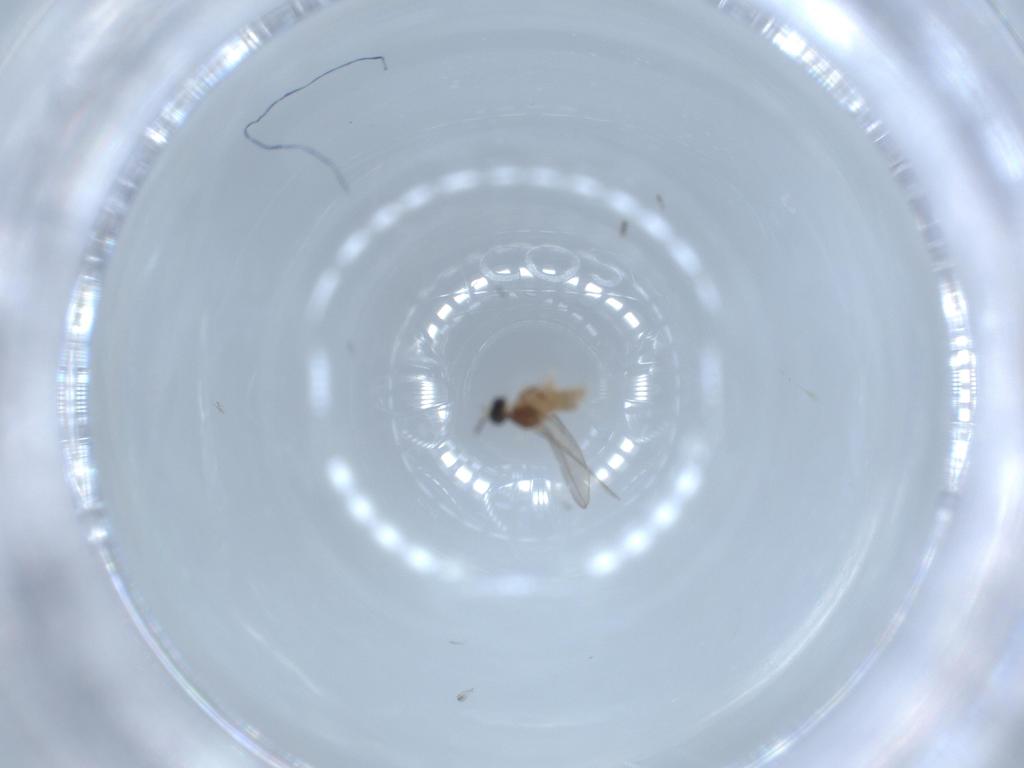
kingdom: Animalia
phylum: Arthropoda
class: Insecta
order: Diptera
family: Cecidomyiidae
